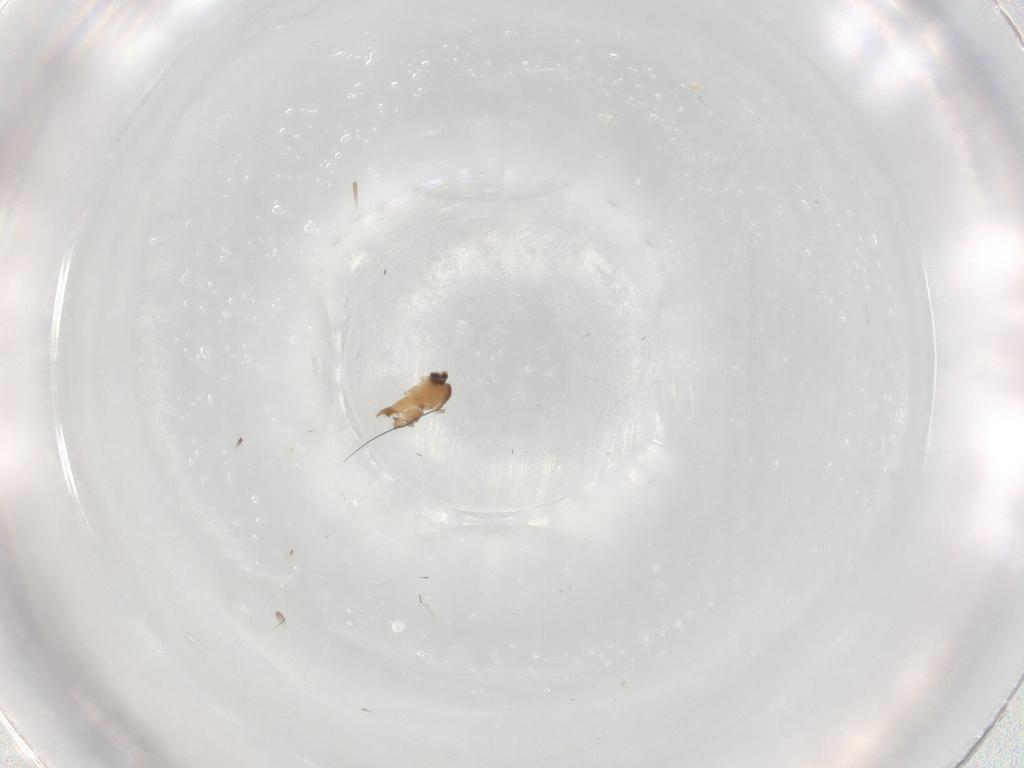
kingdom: Animalia
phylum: Arthropoda
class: Insecta
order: Diptera
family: Cecidomyiidae
